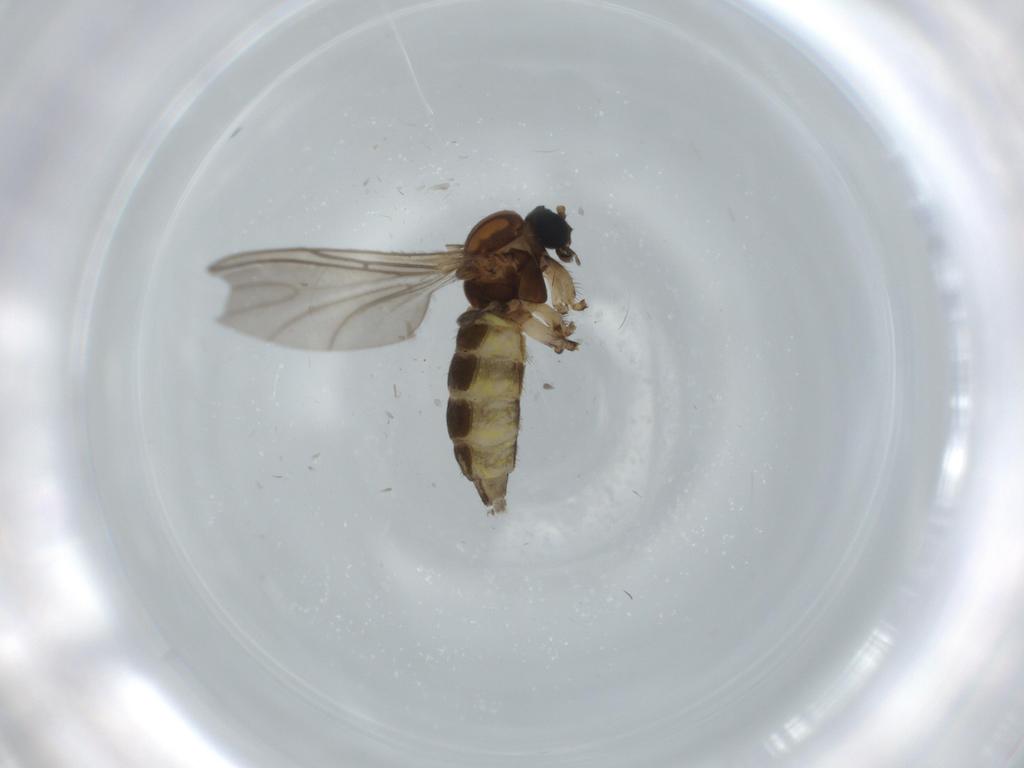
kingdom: Animalia
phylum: Arthropoda
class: Insecta
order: Diptera
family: Sciaridae
